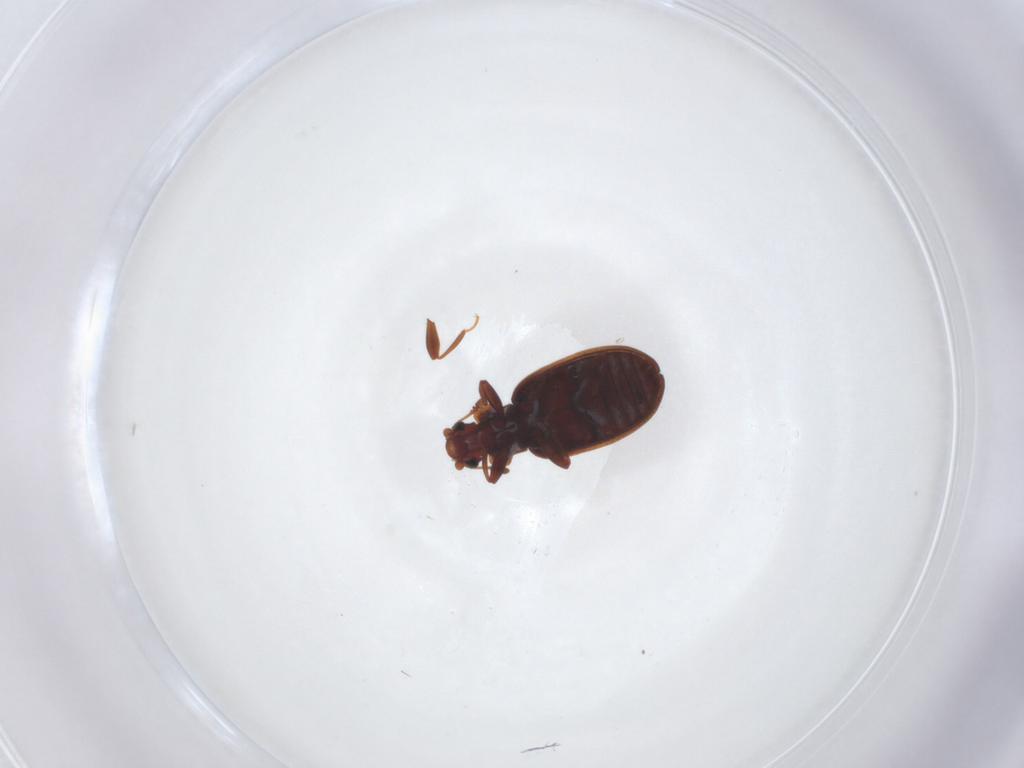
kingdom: Animalia
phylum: Arthropoda
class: Insecta
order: Coleoptera
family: Latridiidae
